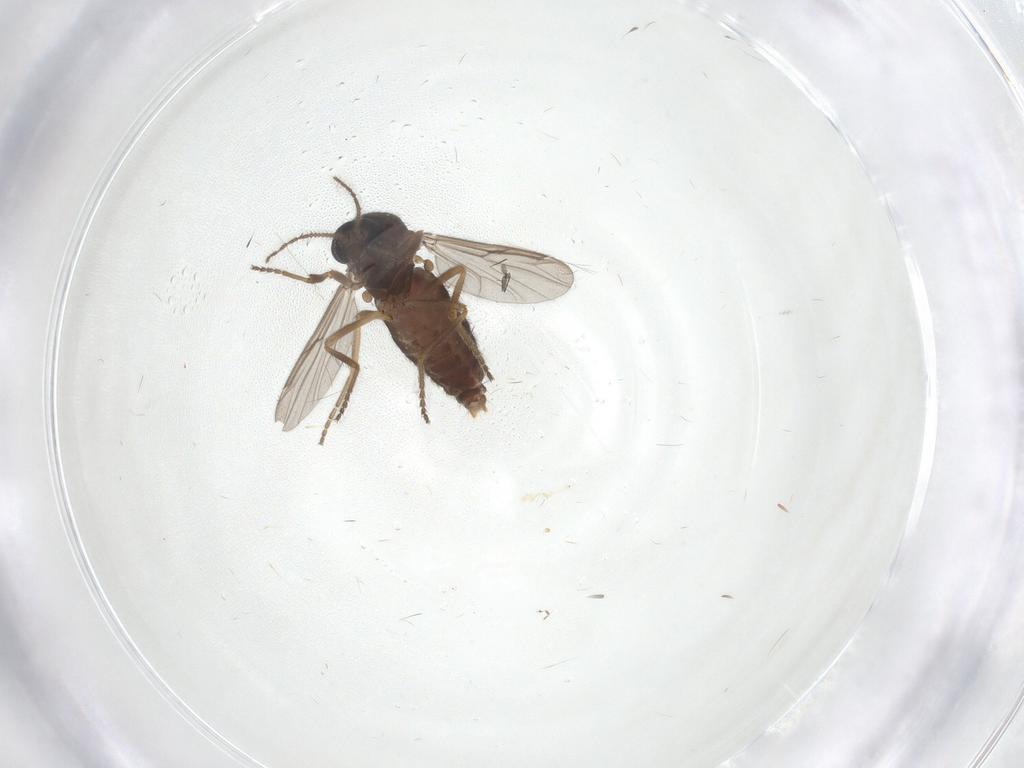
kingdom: Animalia
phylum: Arthropoda
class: Insecta
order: Diptera
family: Ceratopogonidae
